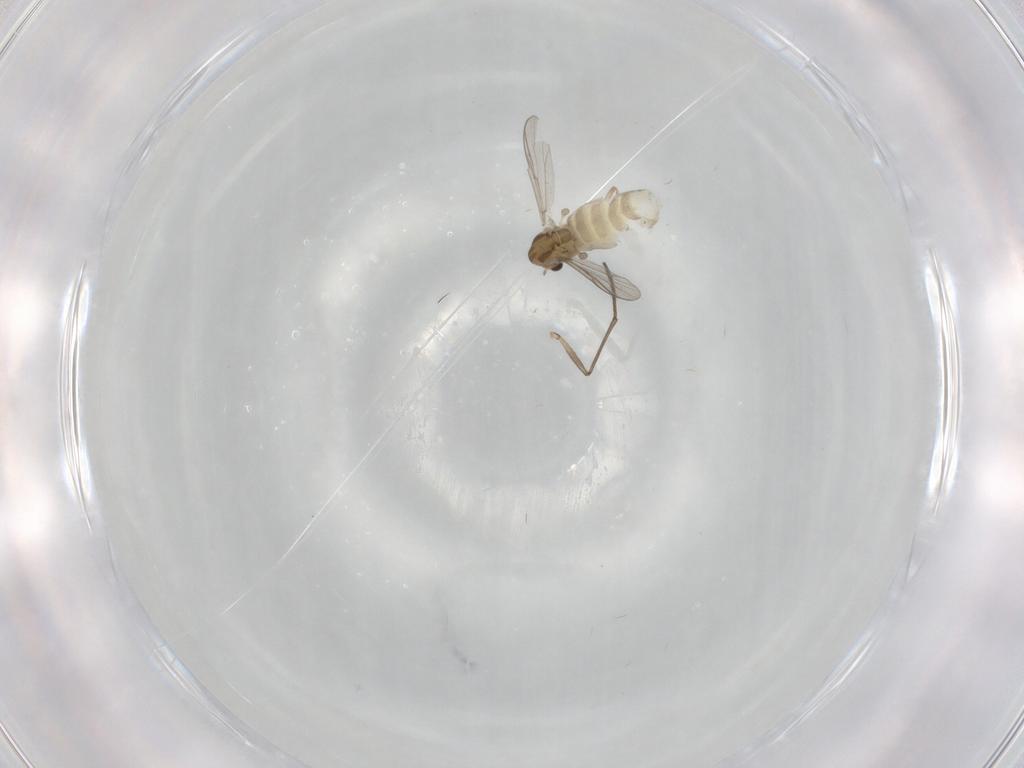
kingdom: Animalia
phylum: Arthropoda
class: Insecta
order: Diptera
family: Chironomidae
